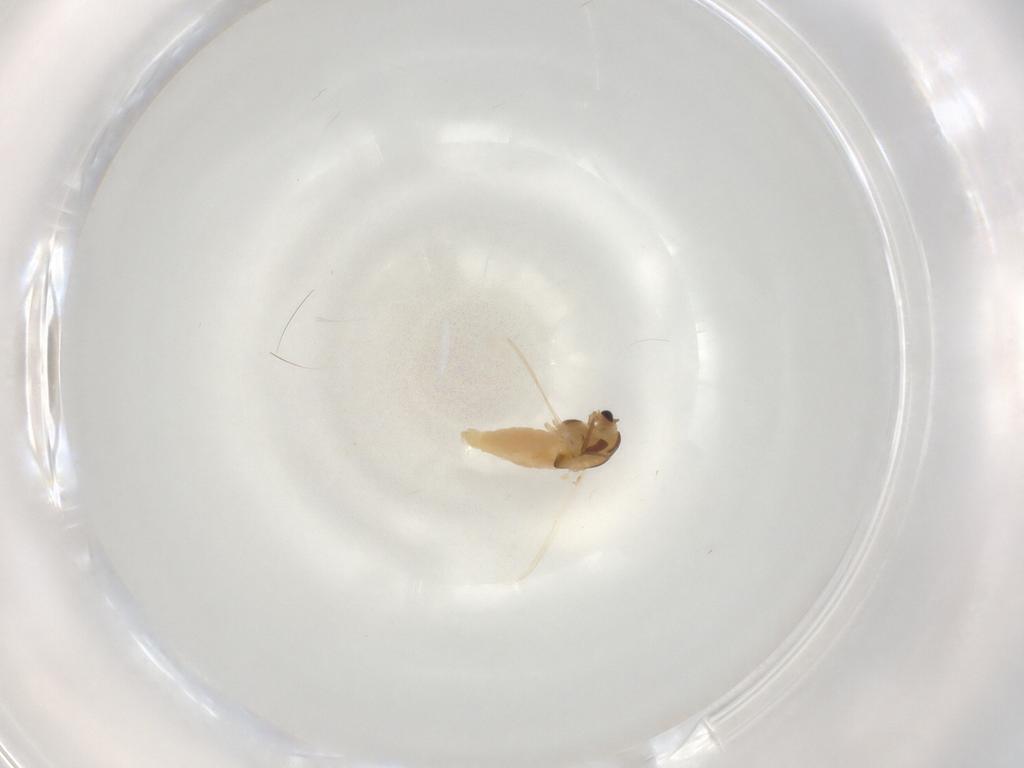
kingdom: Animalia
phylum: Arthropoda
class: Insecta
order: Diptera
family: Chironomidae
